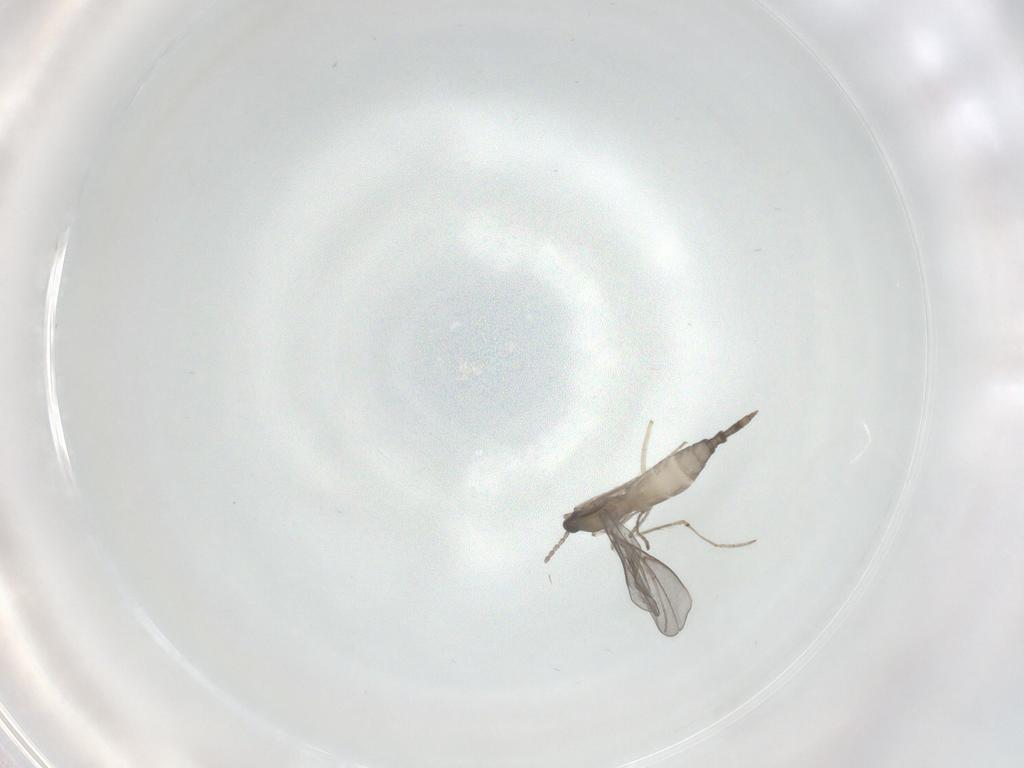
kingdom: Animalia
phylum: Arthropoda
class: Insecta
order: Diptera
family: Cecidomyiidae
